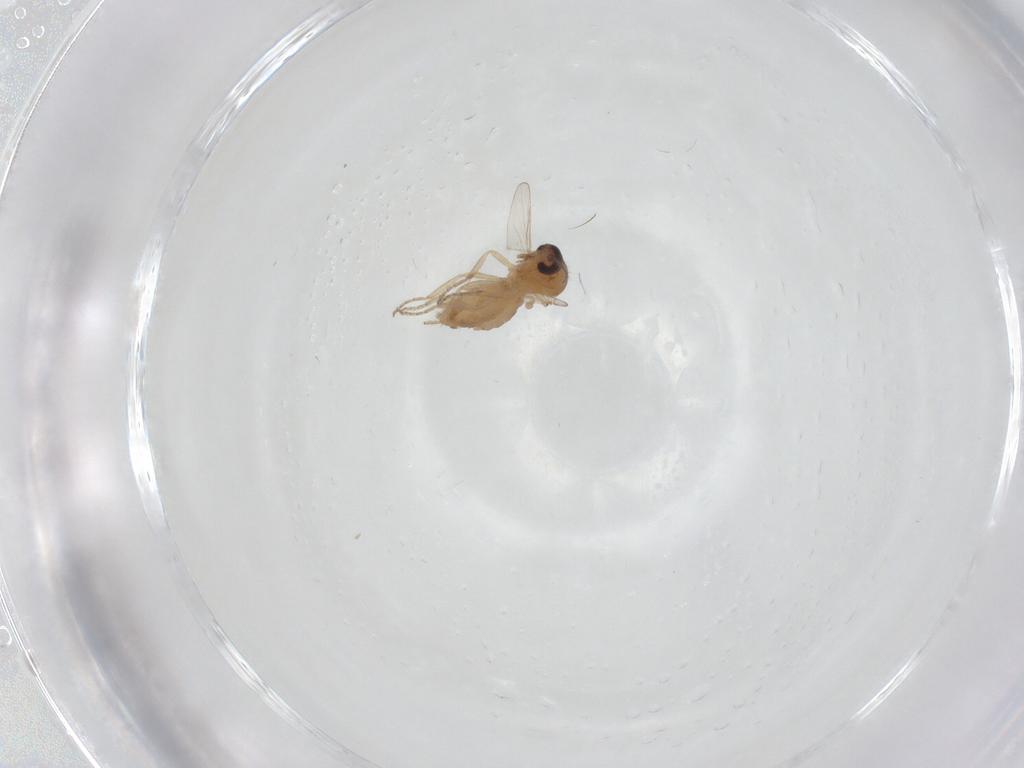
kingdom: Animalia
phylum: Arthropoda
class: Insecta
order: Diptera
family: Ceratopogonidae
